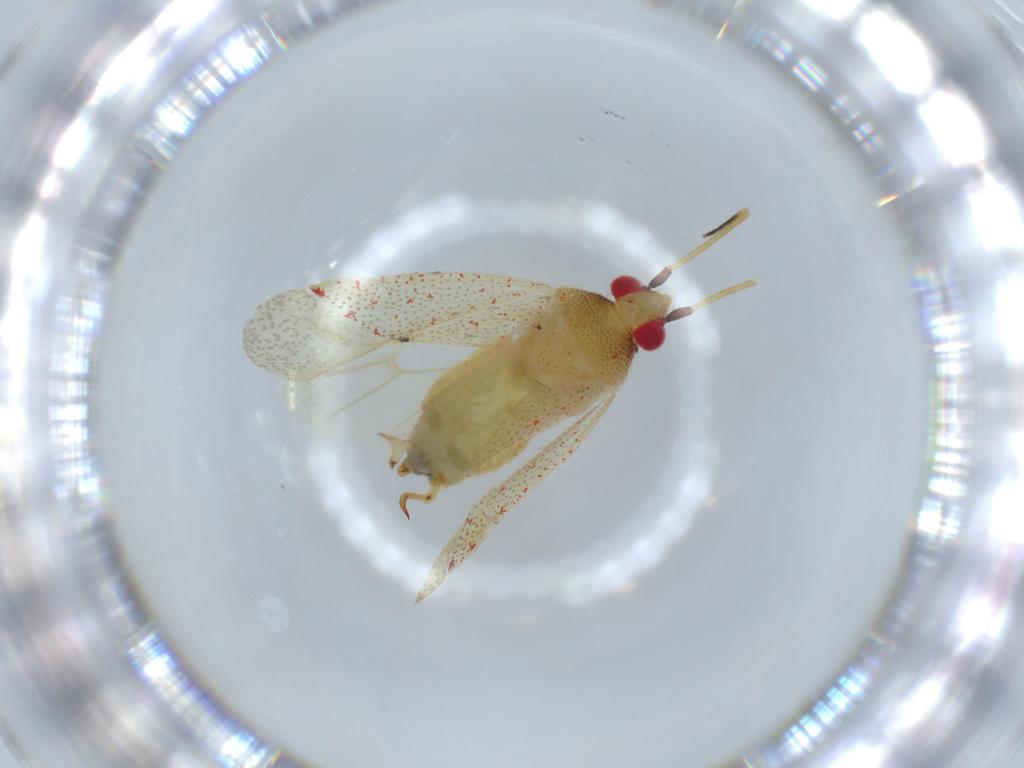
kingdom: Animalia
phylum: Arthropoda
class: Insecta
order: Hemiptera
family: Miridae
